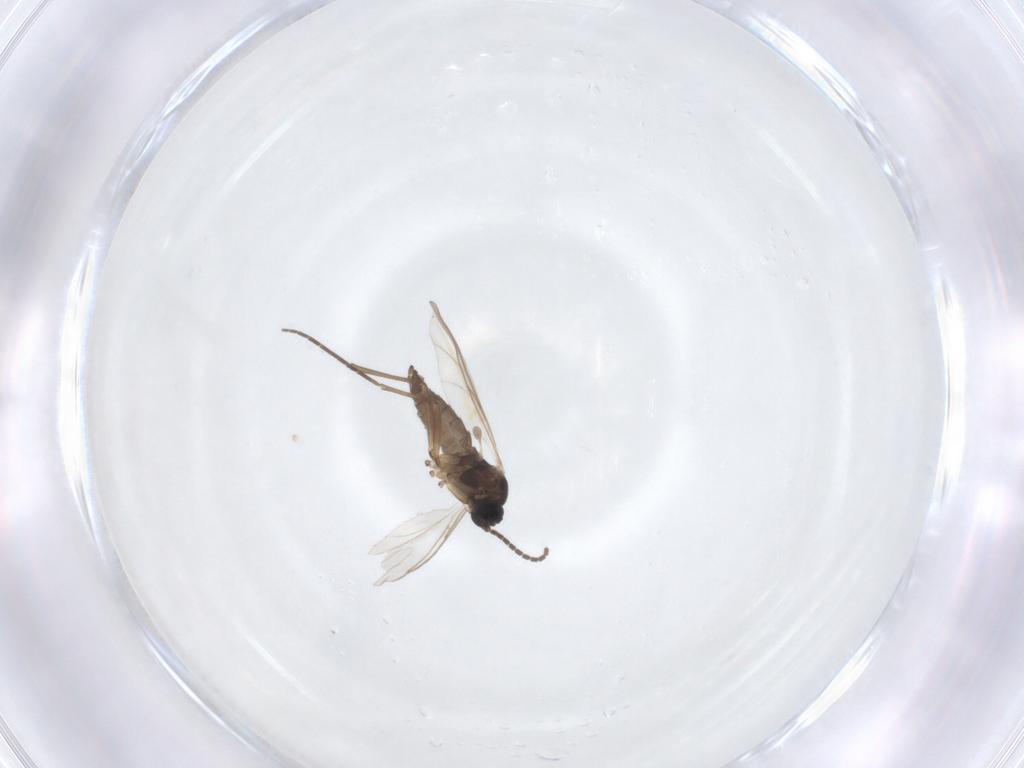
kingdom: Animalia
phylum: Arthropoda
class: Insecta
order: Diptera
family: Sciaridae
